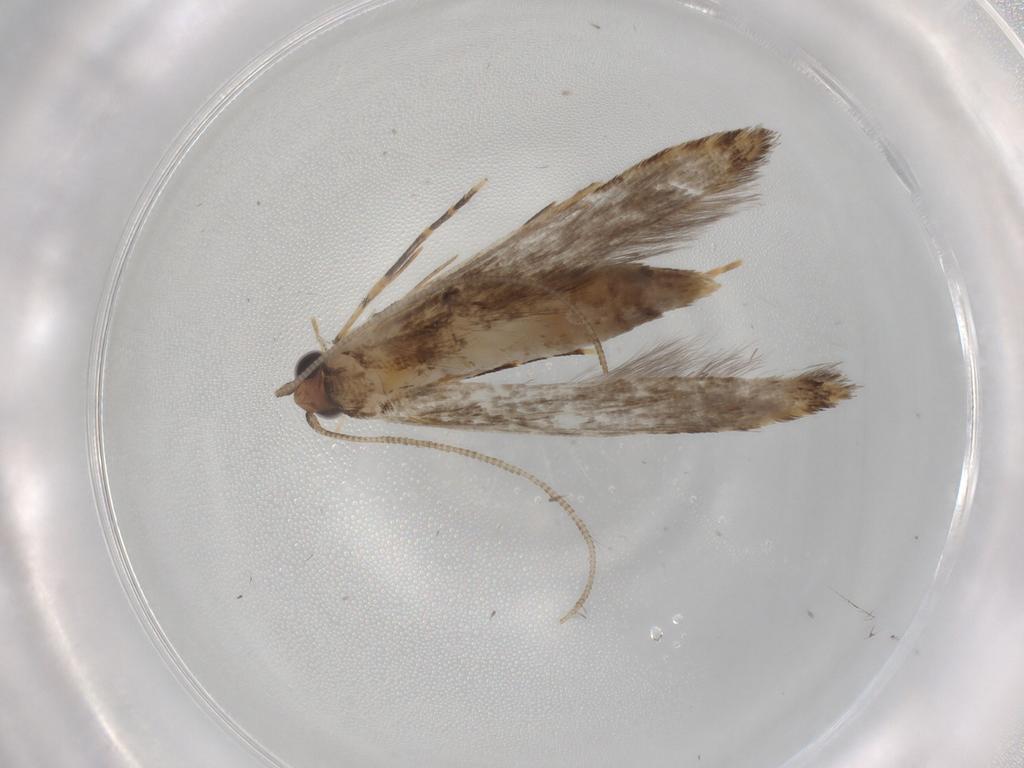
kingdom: Animalia
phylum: Arthropoda
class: Insecta
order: Lepidoptera
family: Tineidae
